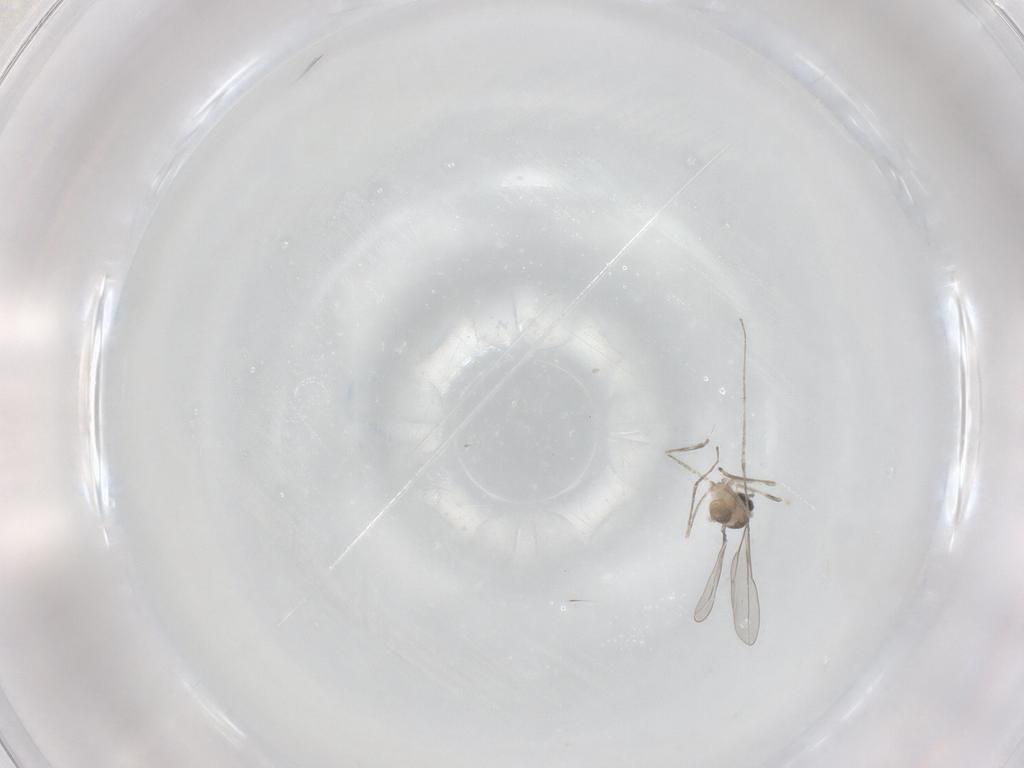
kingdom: Animalia
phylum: Arthropoda
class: Insecta
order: Diptera
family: Cecidomyiidae
